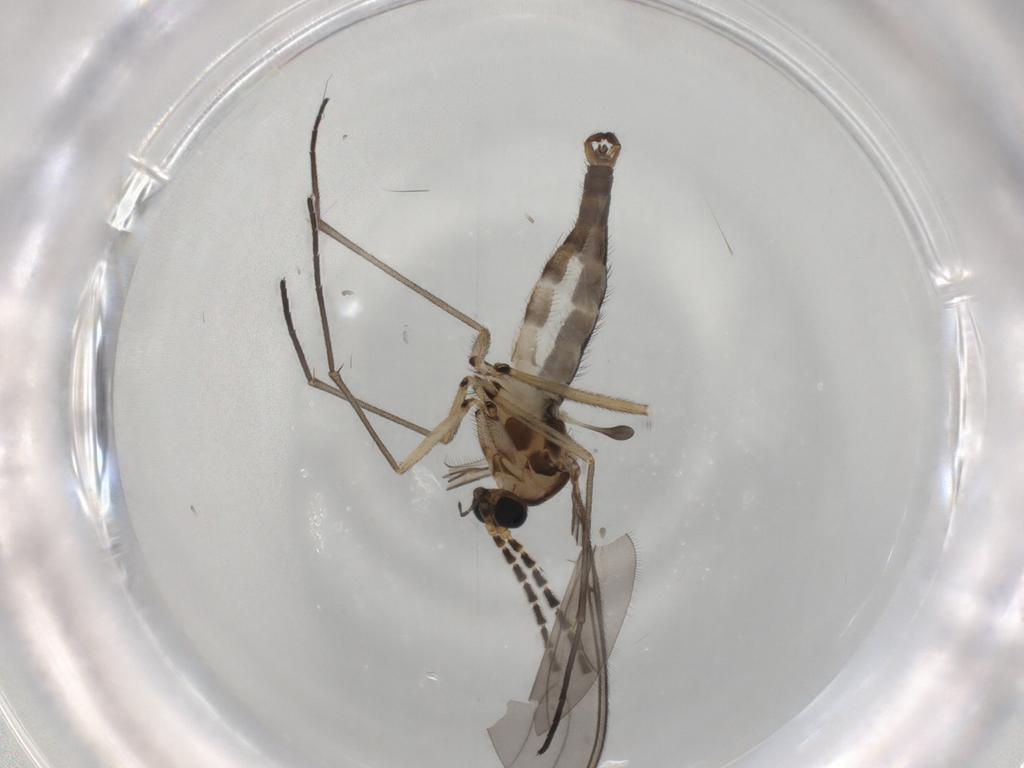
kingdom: Animalia
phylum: Arthropoda
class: Insecta
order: Diptera
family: Sciaridae
